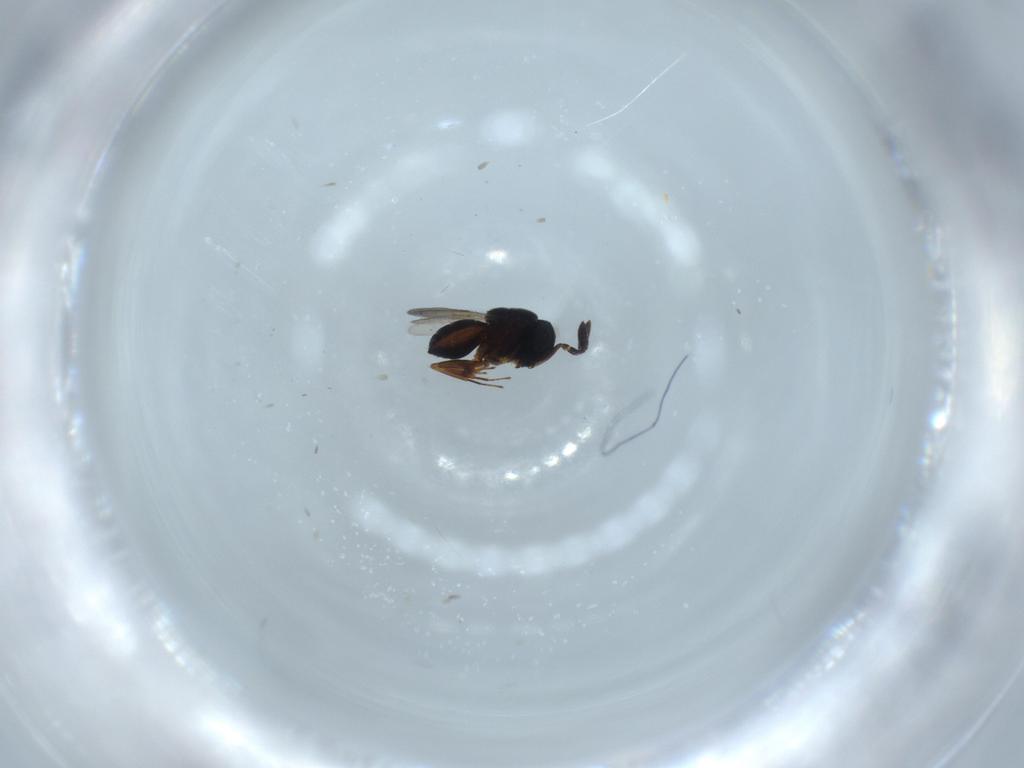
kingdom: Animalia
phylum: Arthropoda
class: Insecta
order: Hymenoptera
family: Scelionidae
